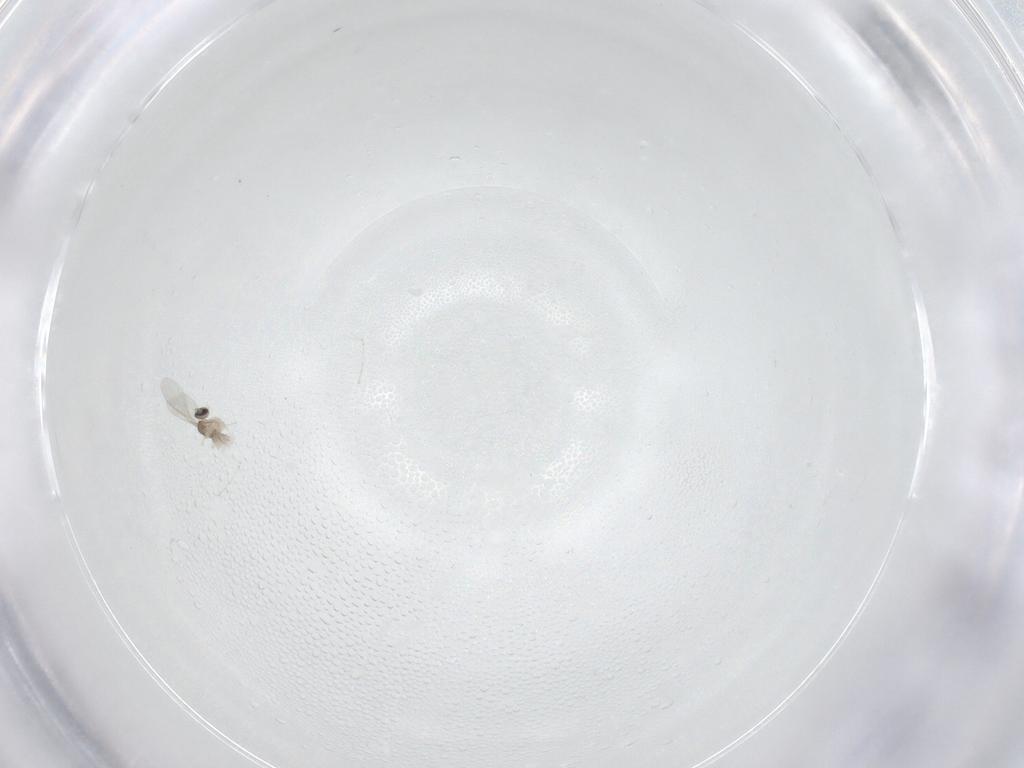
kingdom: Animalia
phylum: Arthropoda
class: Insecta
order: Diptera
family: Cecidomyiidae
